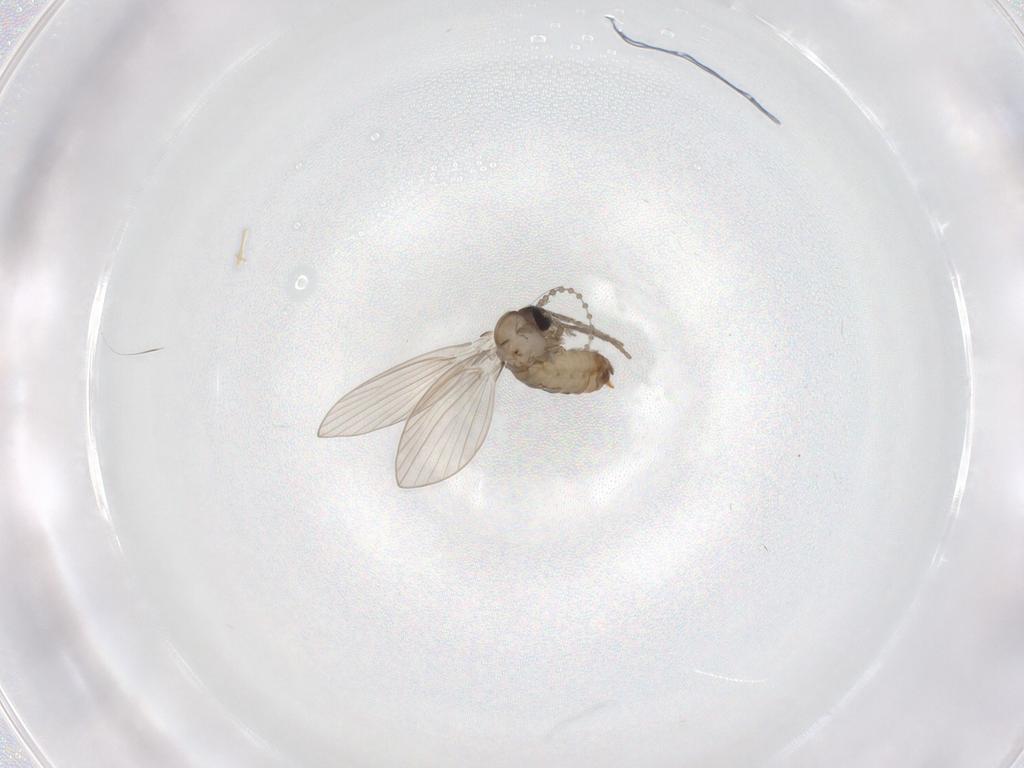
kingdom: Animalia
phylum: Arthropoda
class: Insecta
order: Diptera
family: Psychodidae
